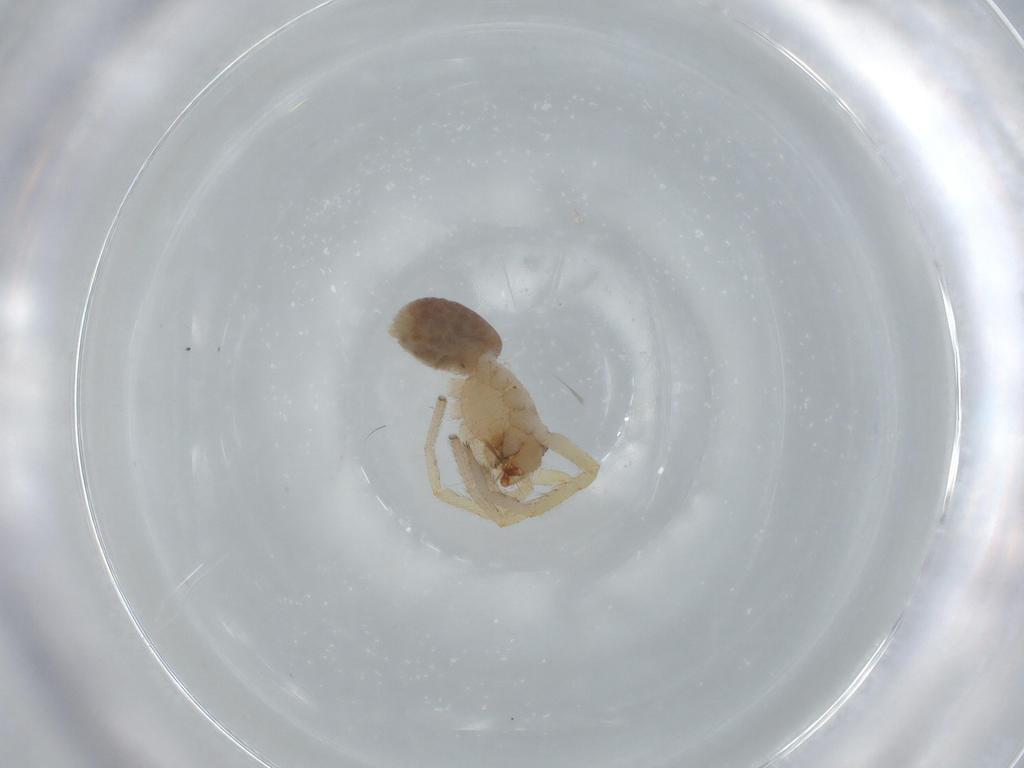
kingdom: Animalia
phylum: Arthropoda
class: Arachnida
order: Araneae
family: Corinnidae
